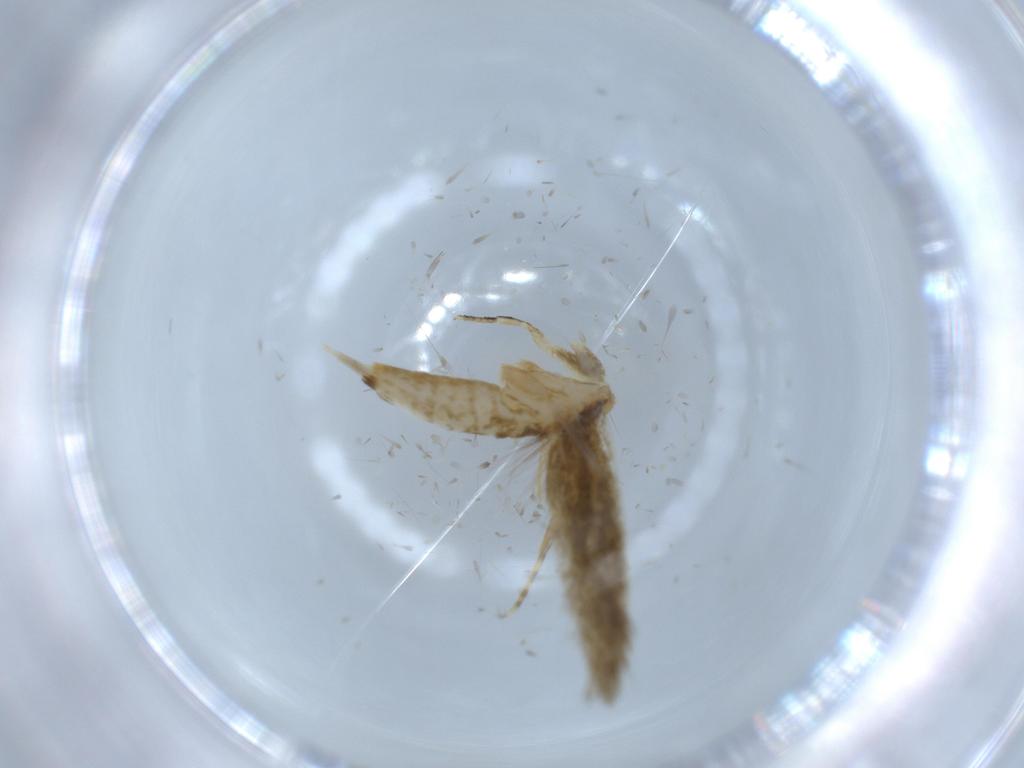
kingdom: Animalia
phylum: Arthropoda
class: Insecta
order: Lepidoptera
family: Tineidae
